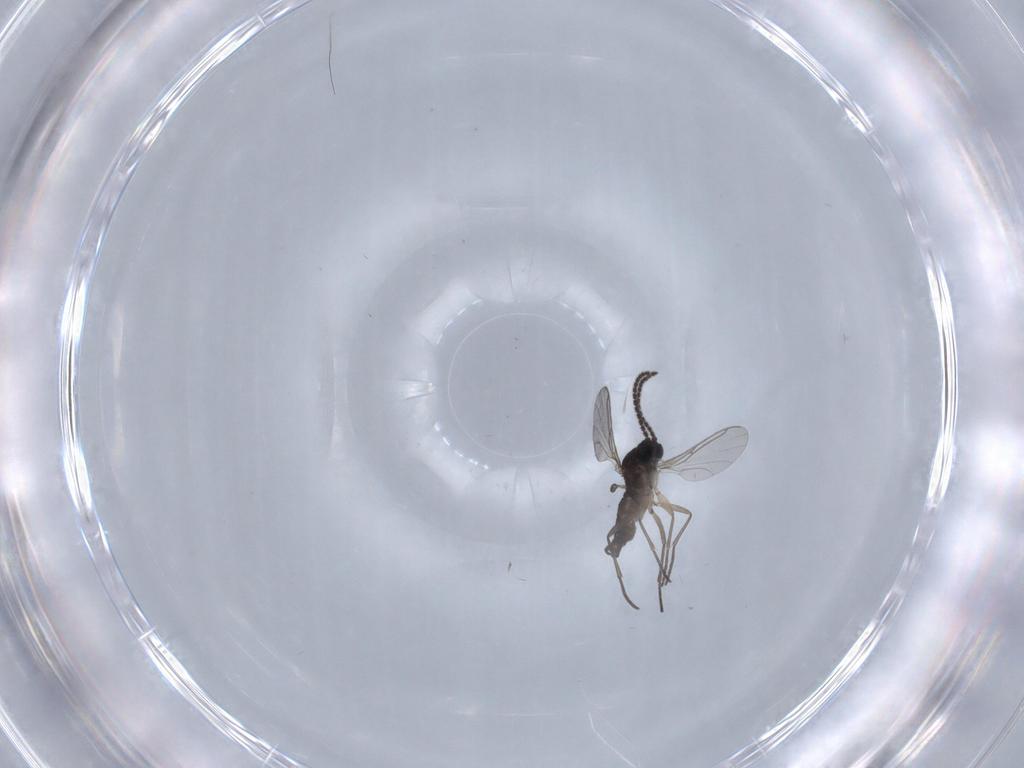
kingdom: Animalia
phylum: Arthropoda
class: Insecta
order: Diptera
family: Sciaridae
